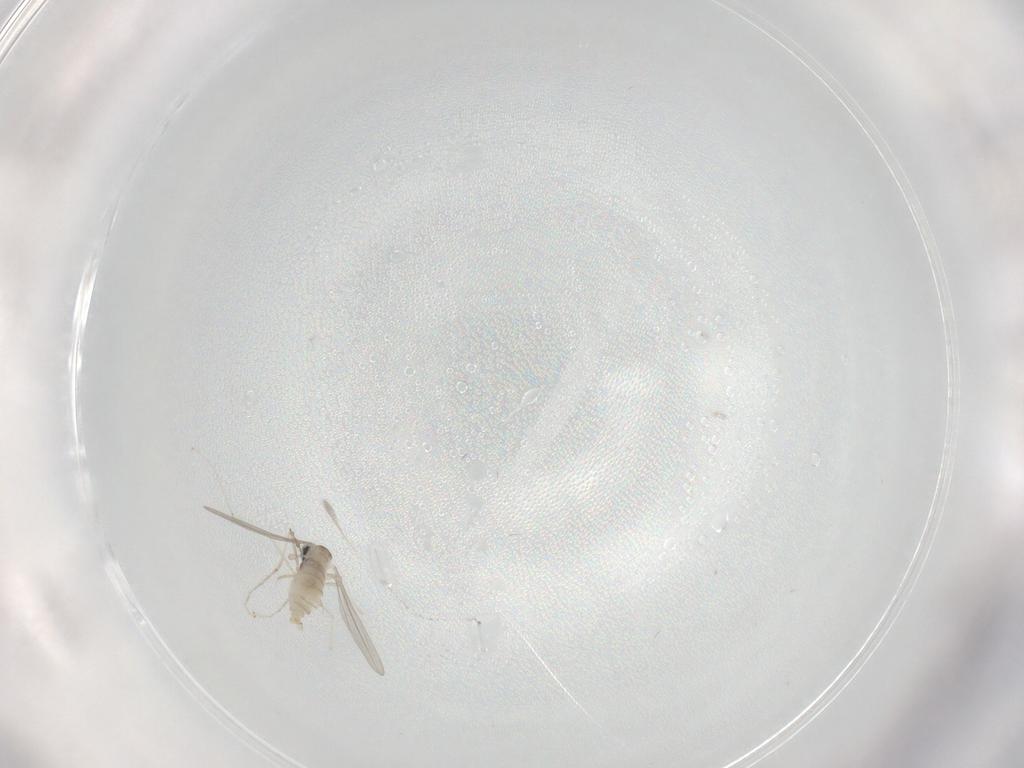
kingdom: Animalia
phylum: Arthropoda
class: Insecta
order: Diptera
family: Cecidomyiidae
